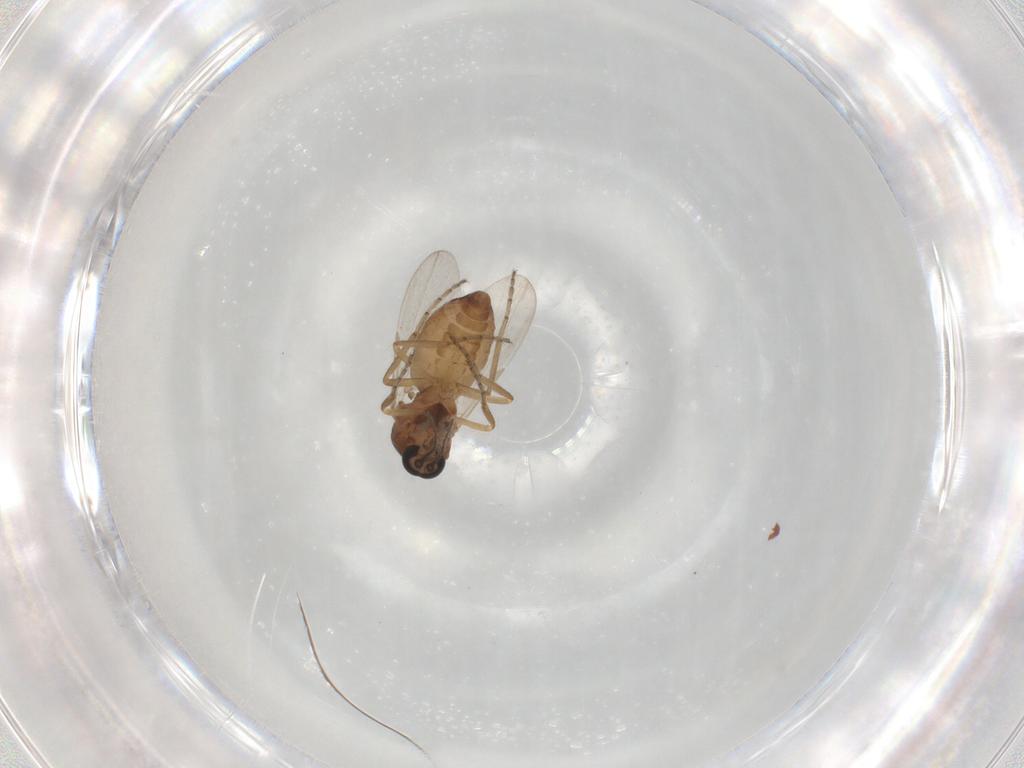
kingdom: Animalia
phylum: Arthropoda
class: Insecta
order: Diptera
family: Ceratopogonidae
